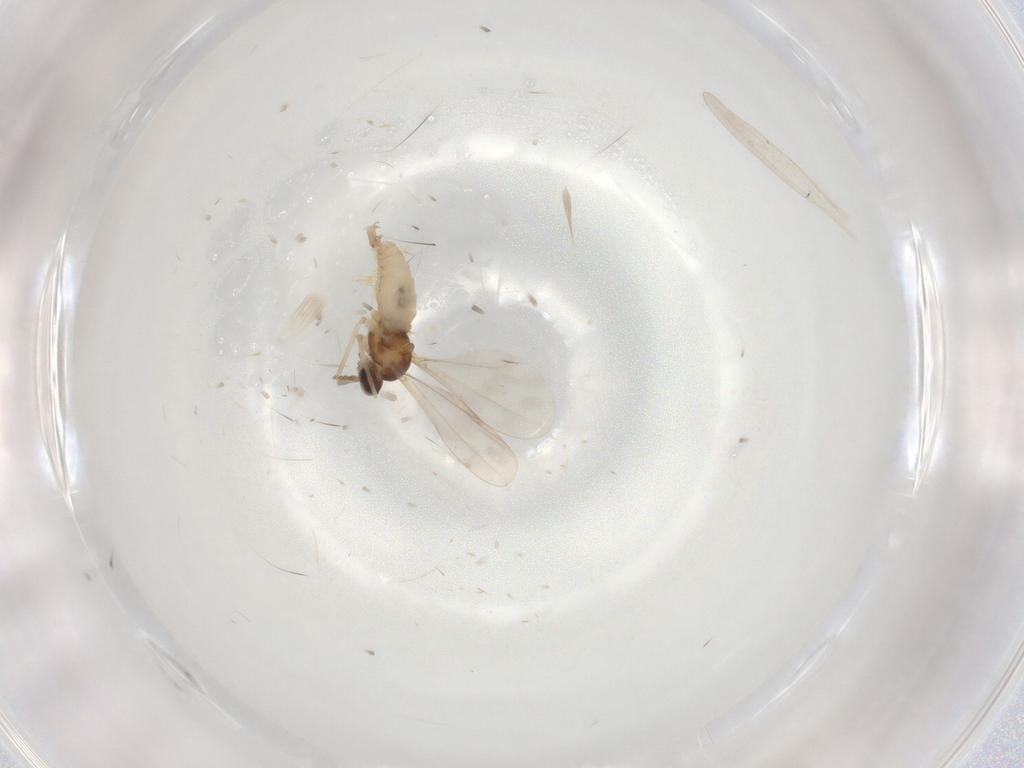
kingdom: Animalia
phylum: Arthropoda
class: Insecta
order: Diptera
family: Cecidomyiidae
